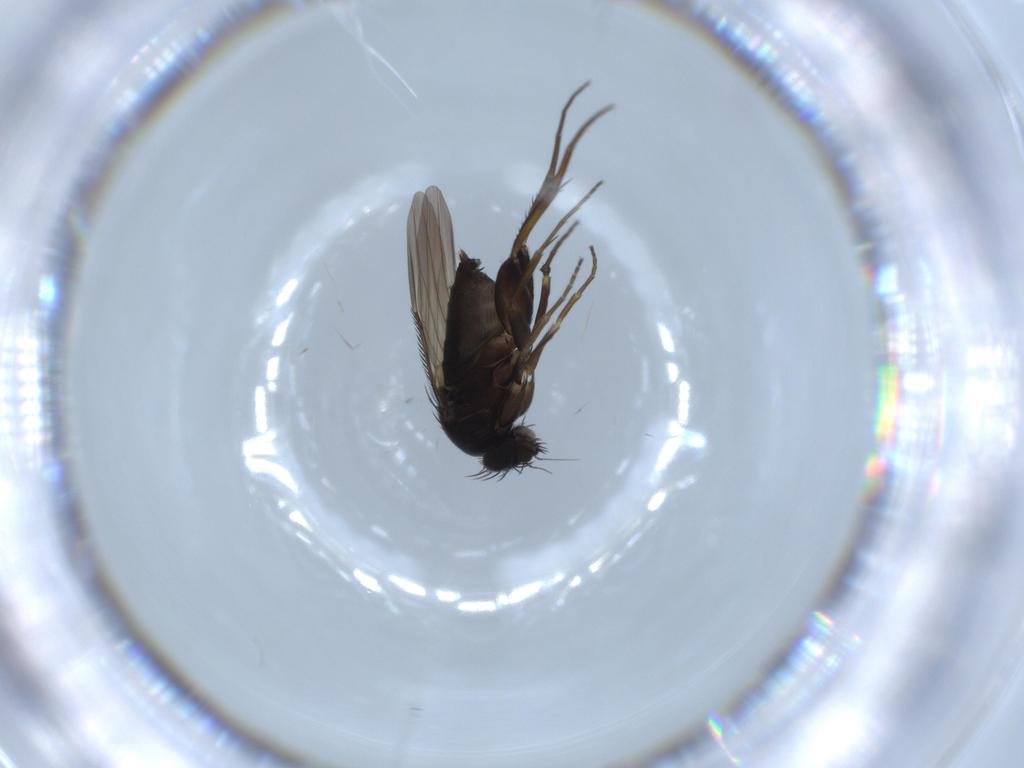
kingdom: Animalia
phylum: Arthropoda
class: Insecta
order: Diptera
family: Phoridae
